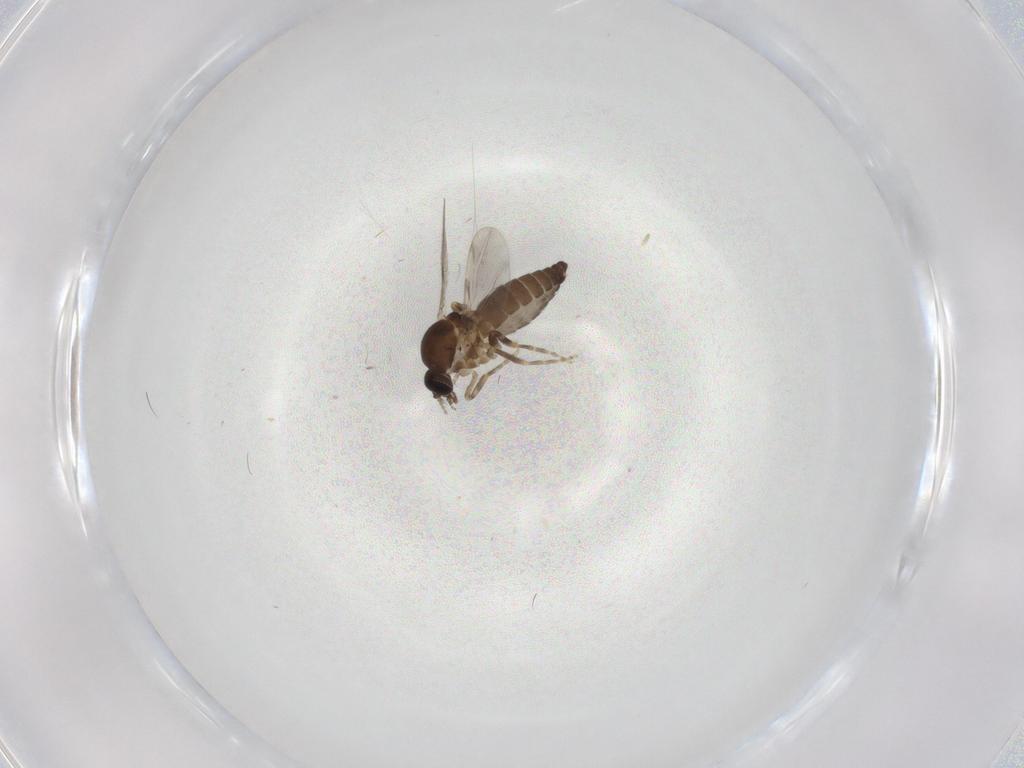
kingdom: Animalia
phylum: Arthropoda
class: Insecta
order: Diptera
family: Ceratopogonidae
